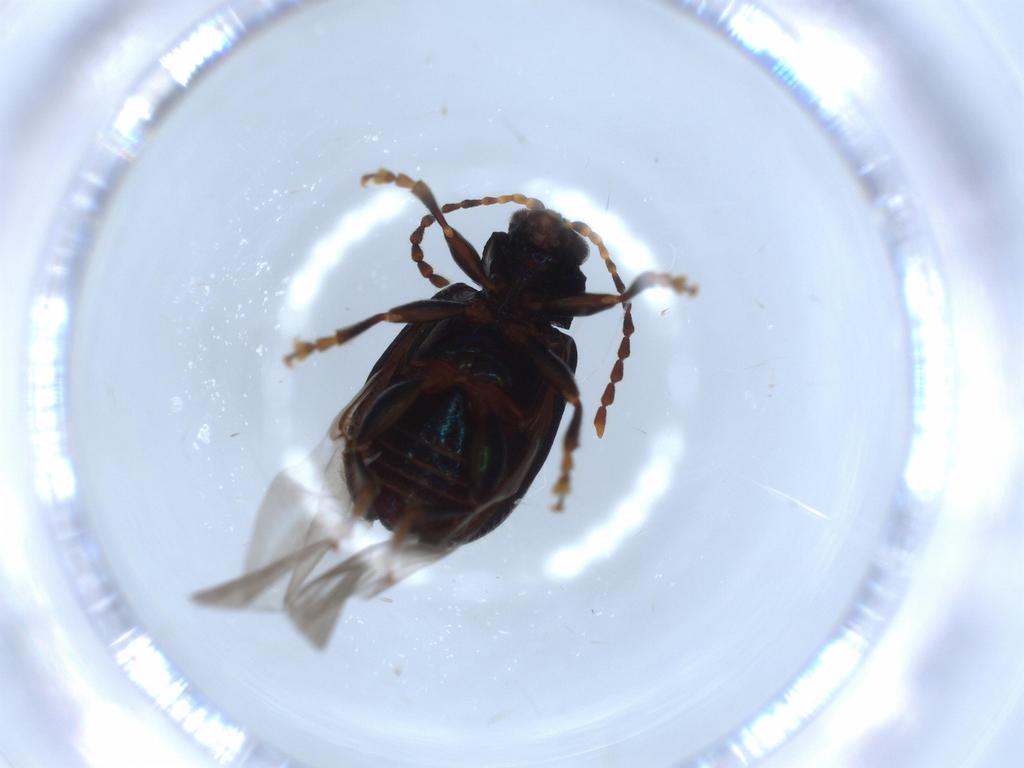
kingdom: Animalia
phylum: Arthropoda
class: Insecta
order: Coleoptera
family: Chrysomelidae
